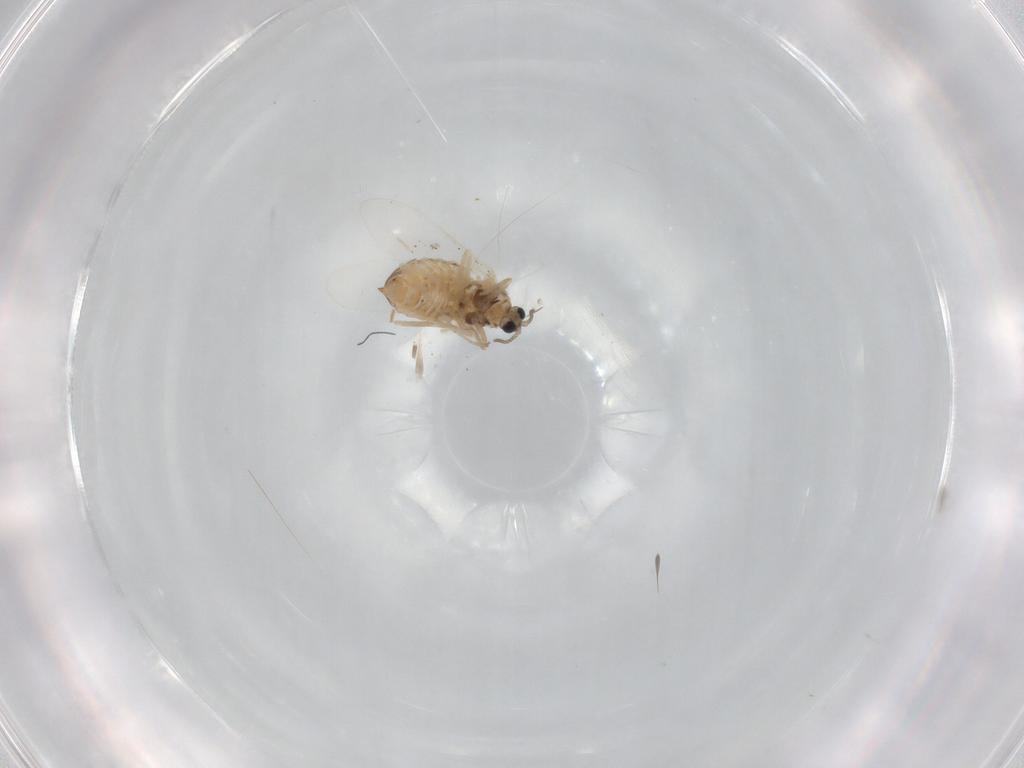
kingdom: Animalia
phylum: Arthropoda
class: Insecta
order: Diptera
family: Cecidomyiidae
